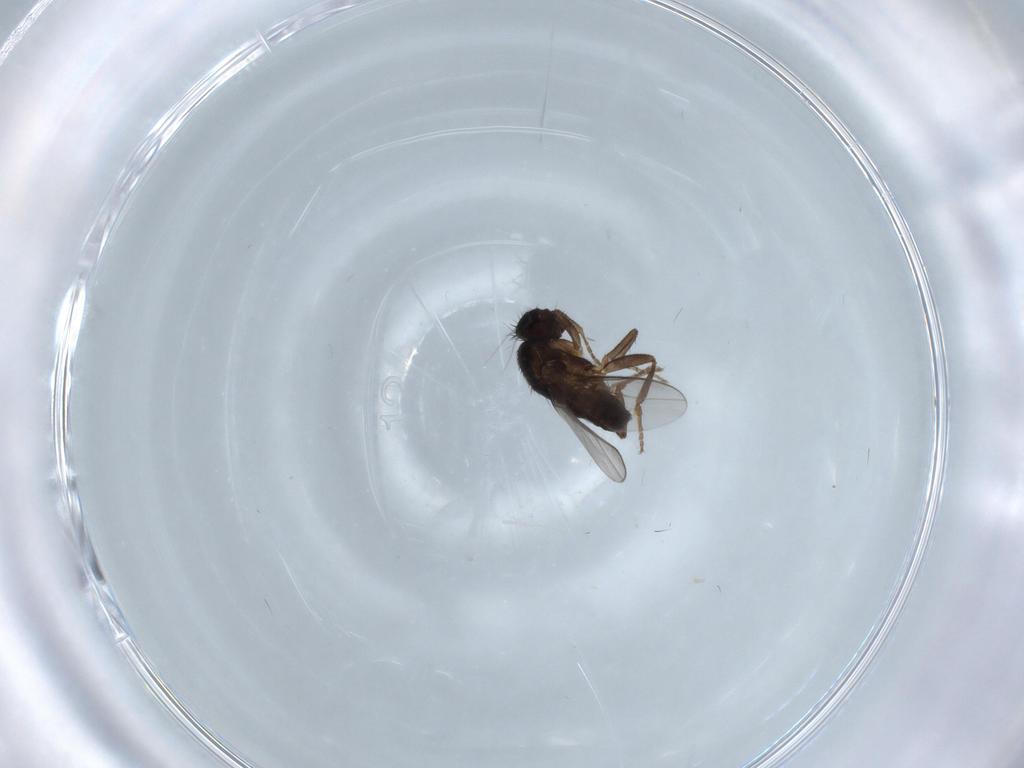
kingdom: Animalia
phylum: Arthropoda
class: Insecta
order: Diptera
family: Sphaeroceridae
